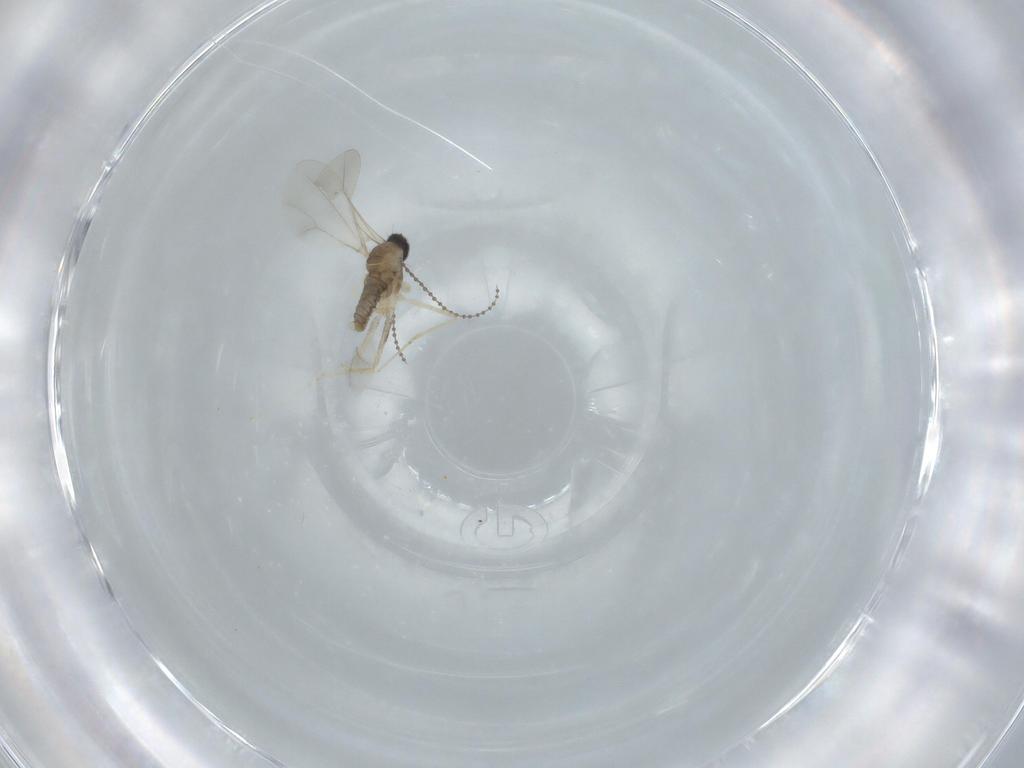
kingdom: Animalia
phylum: Arthropoda
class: Insecta
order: Diptera
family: Cecidomyiidae
